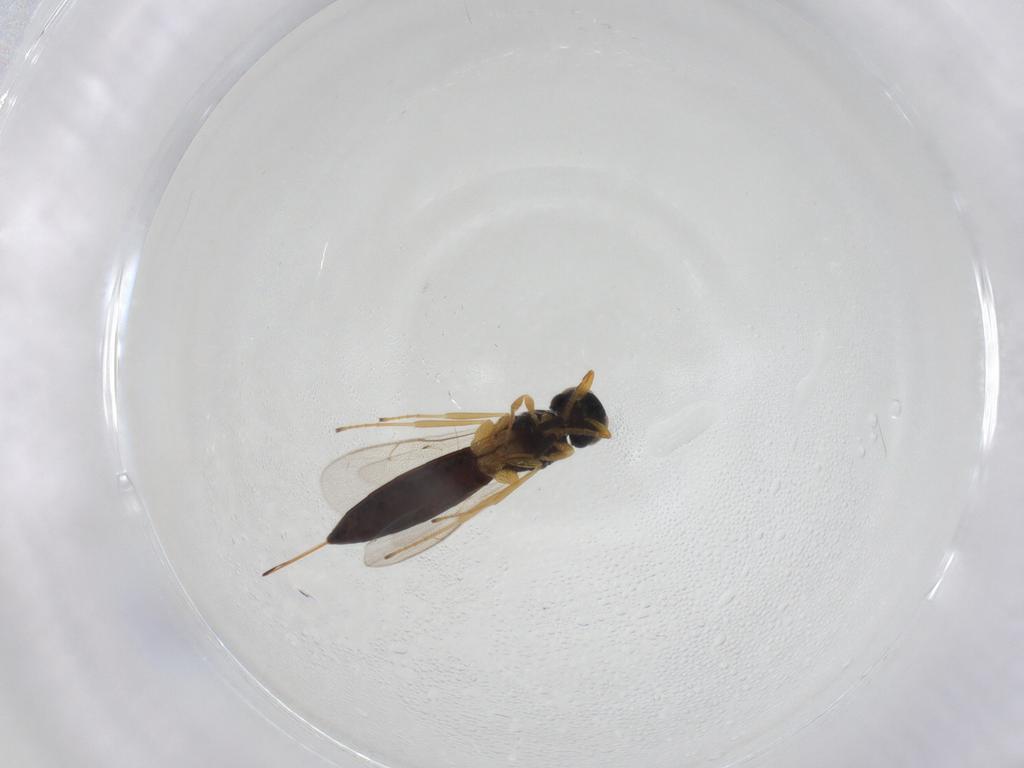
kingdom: Animalia
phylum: Arthropoda
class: Insecta
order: Hymenoptera
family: Scelionidae
